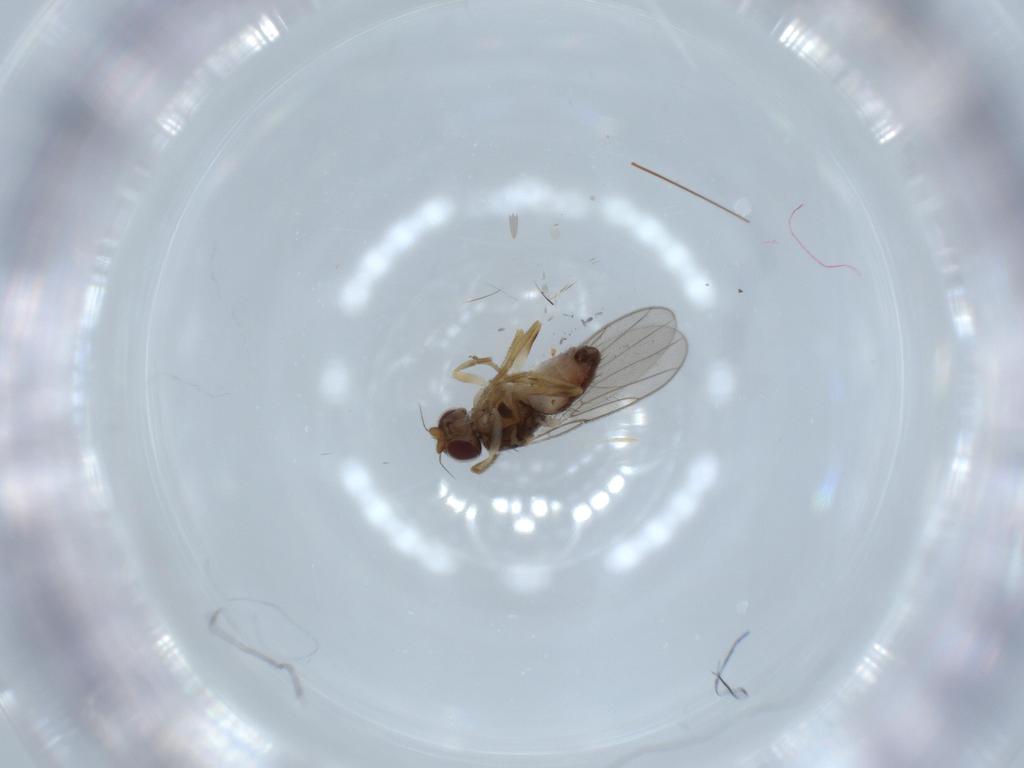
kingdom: Animalia
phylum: Arthropoda
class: Insecta
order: Diptera
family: Chloropidae
